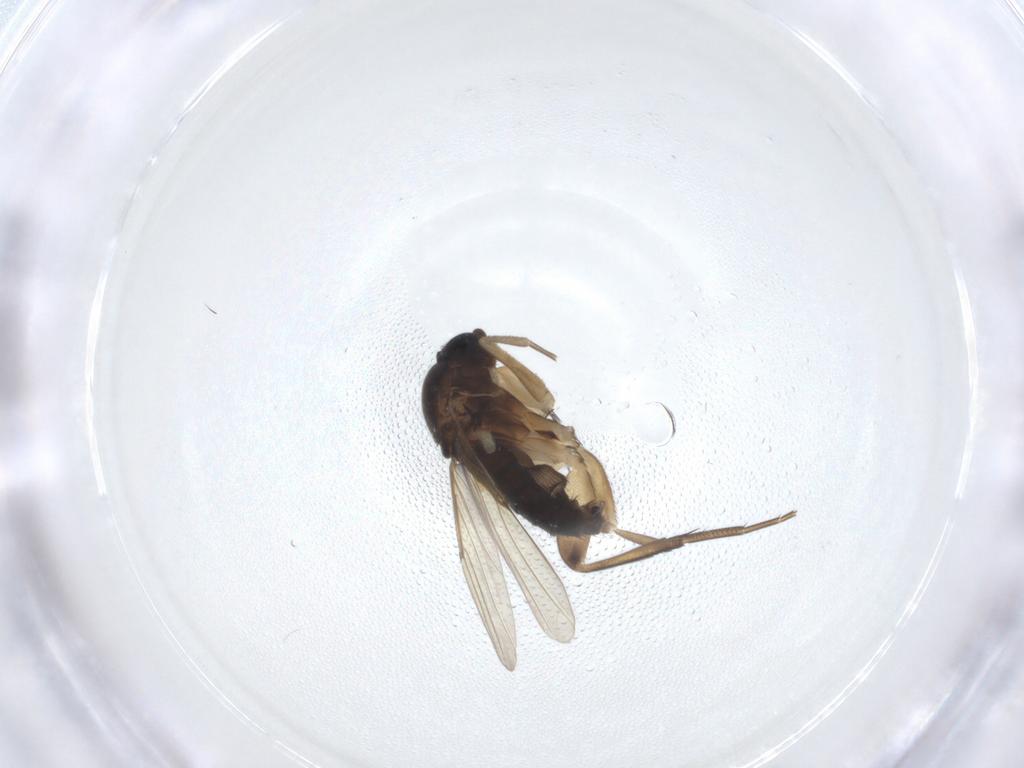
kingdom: Animalia
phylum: Arthropoda
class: Insecta
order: Diptera
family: Phoridae
